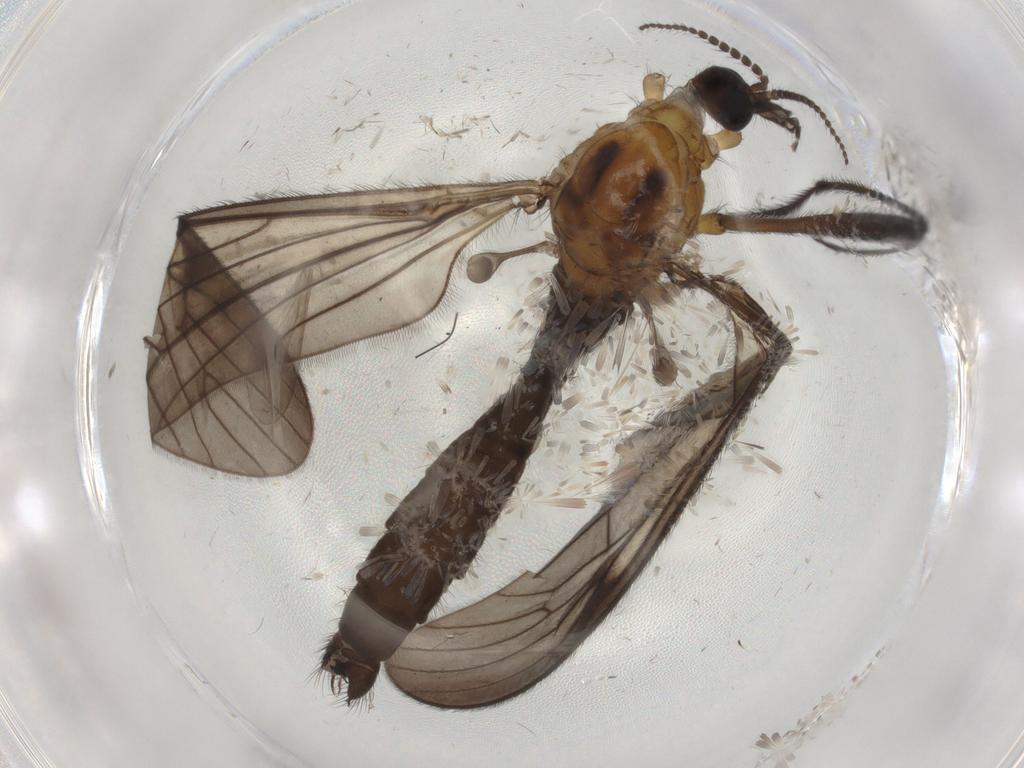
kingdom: Animalia
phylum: Arthropoda
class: Insecta
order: Diptera
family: Limoniidae
